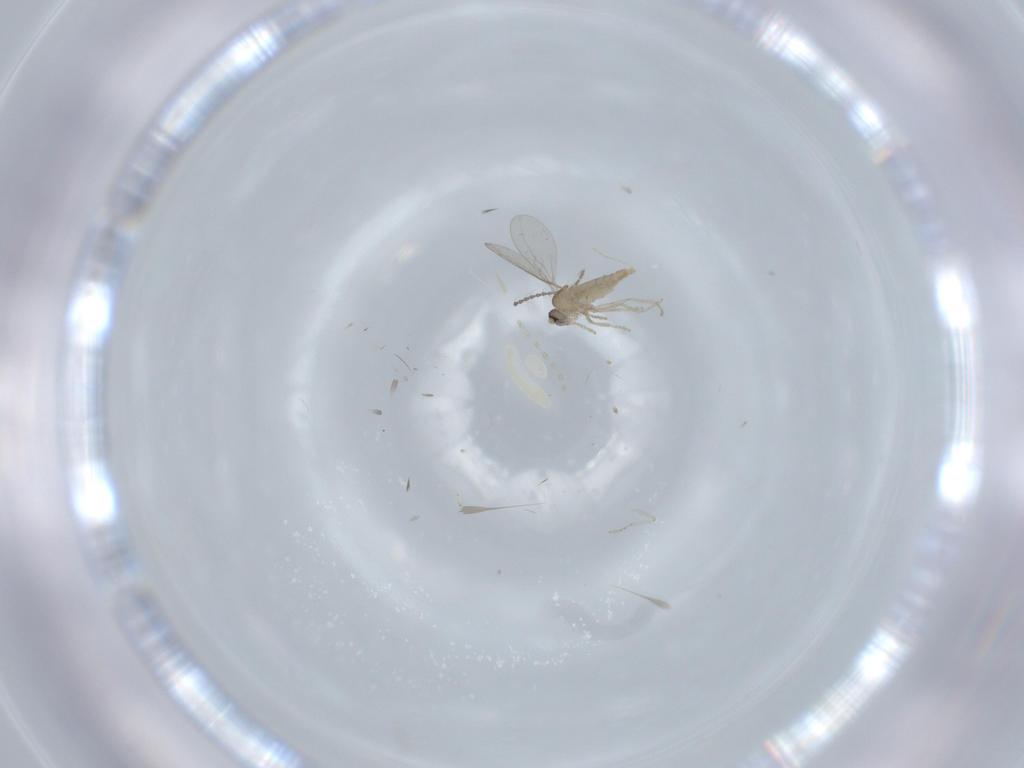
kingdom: Animalia
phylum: Arthropoda
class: Insecta
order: Diptera
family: Cecidomyiidae
